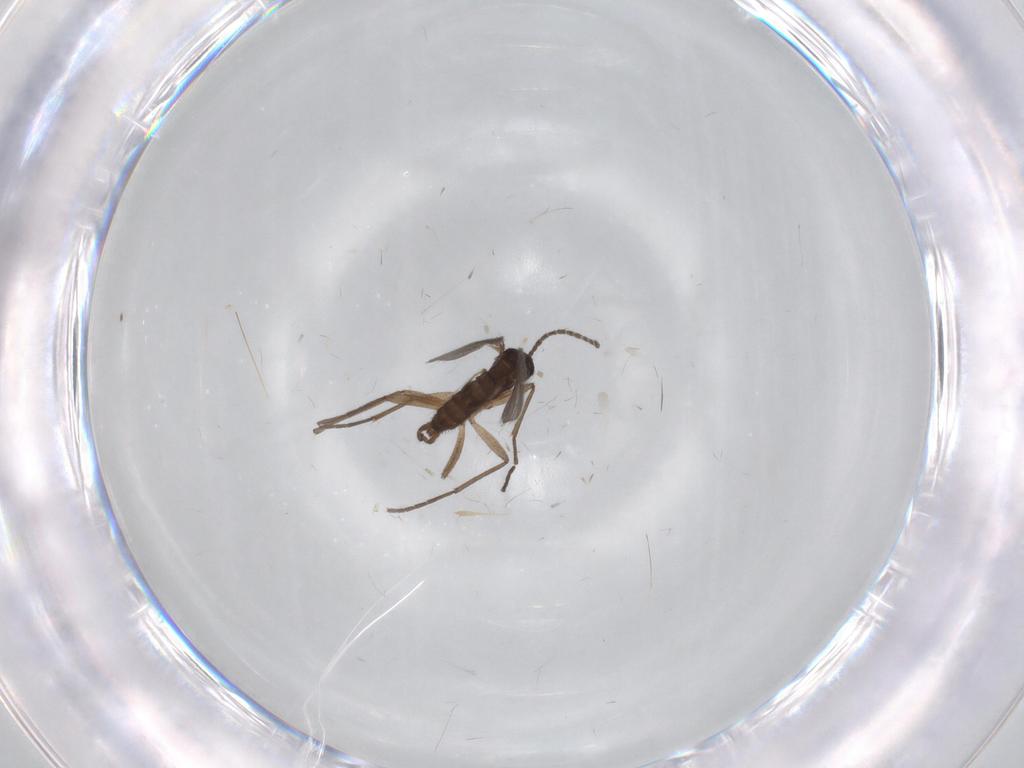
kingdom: Animalia
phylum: Arthropoda
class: Insecta
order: Diptera
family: Sciaridae
